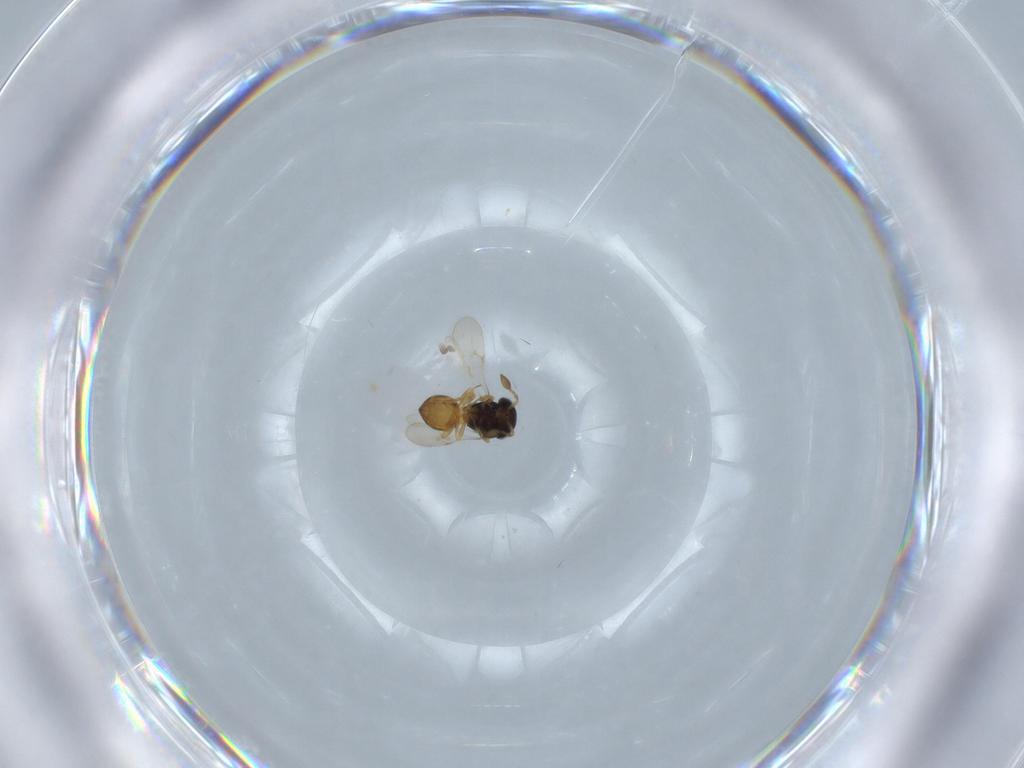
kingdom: Animalia
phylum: Arthropoda
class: Insecta
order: Hymenoptera
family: Scelionidae
